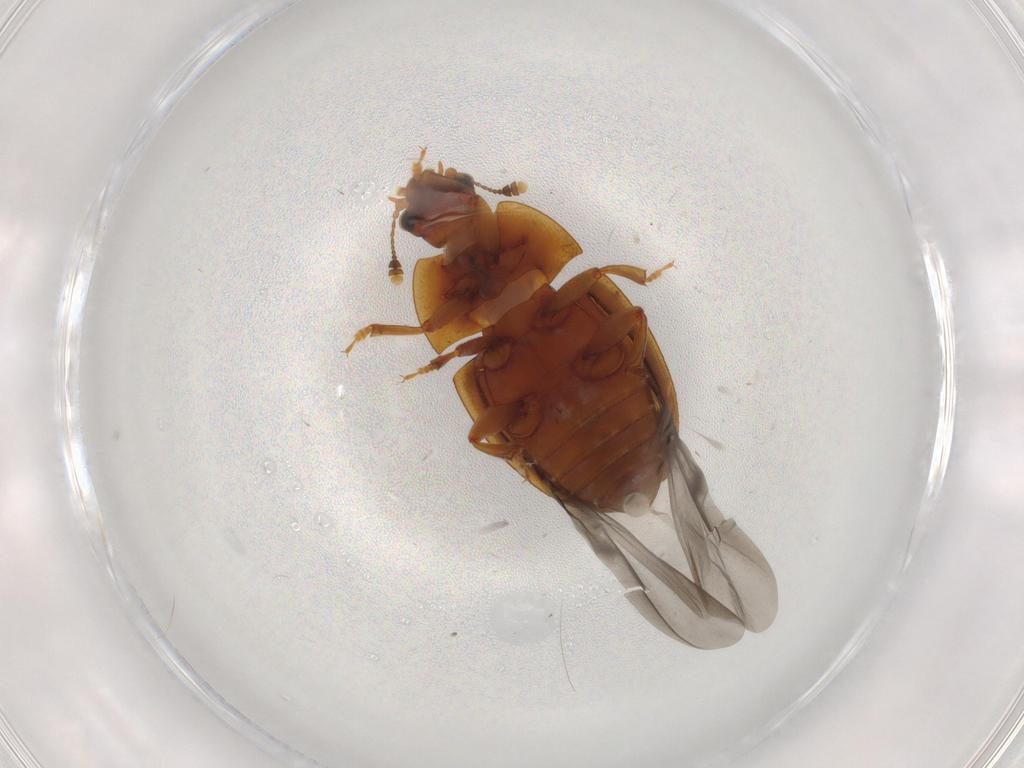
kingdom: Animalia
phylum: Arthropoda
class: Insecta
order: Coleoptera
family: Nitidulidae
